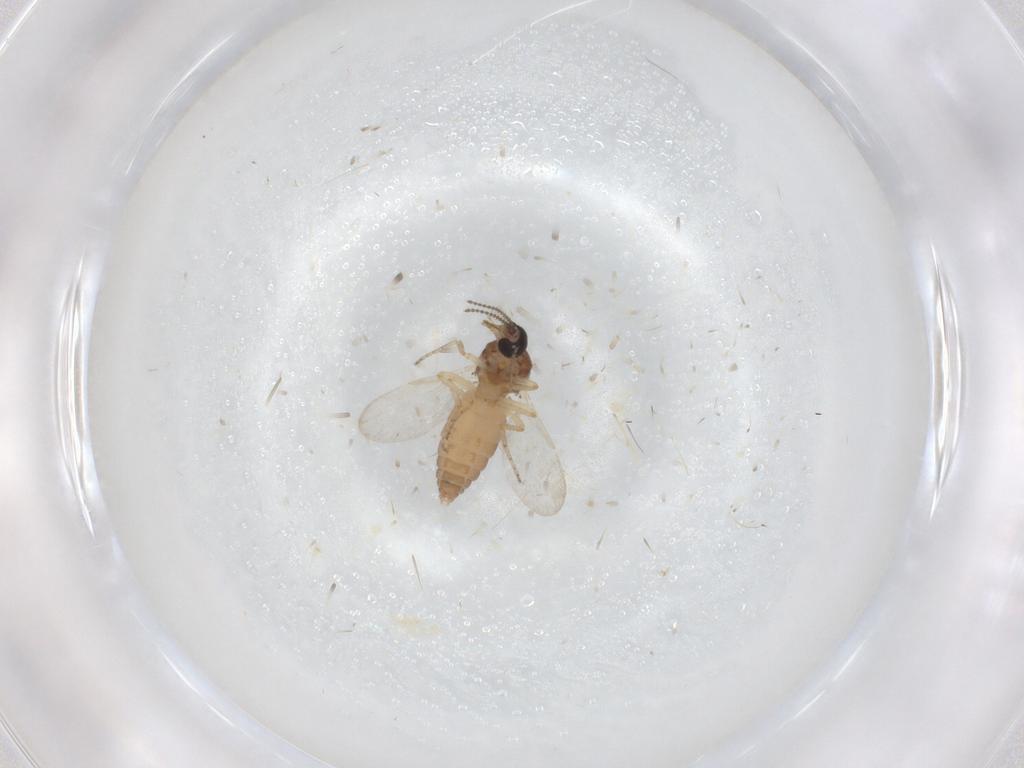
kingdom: Animalia
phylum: Arthropoda
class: Insecta
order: Diptera
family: Ceratopogonidae
